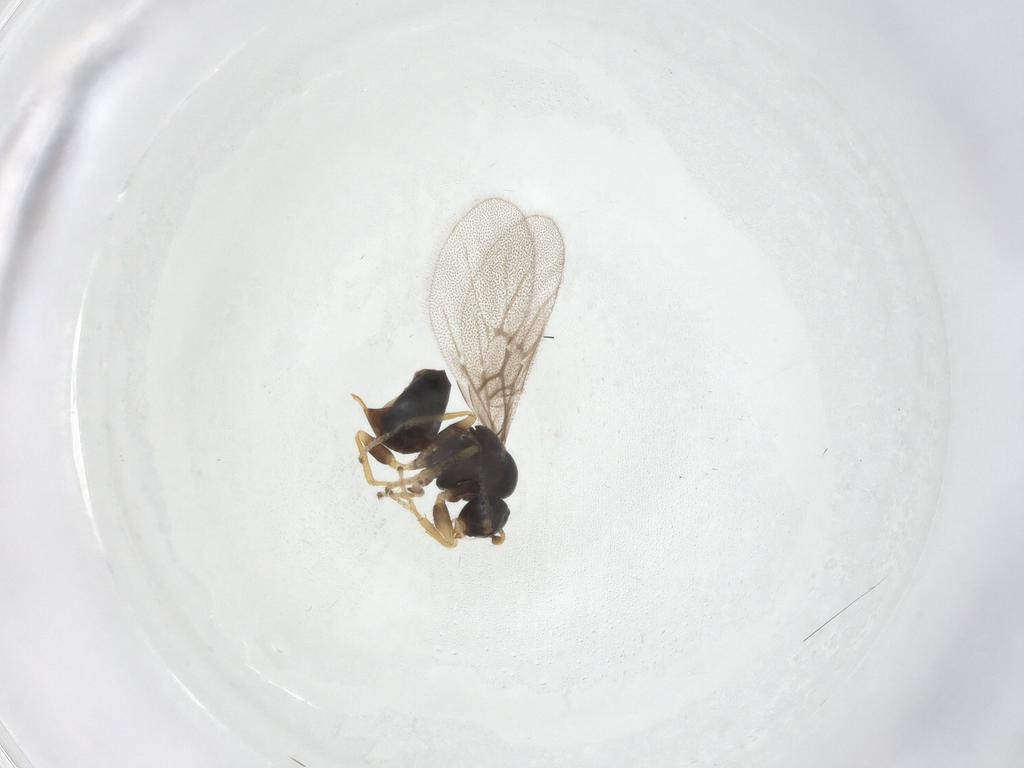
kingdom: Animalia
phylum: Arthropoda
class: Insecta
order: Hymenoptera
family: Cynipidae
